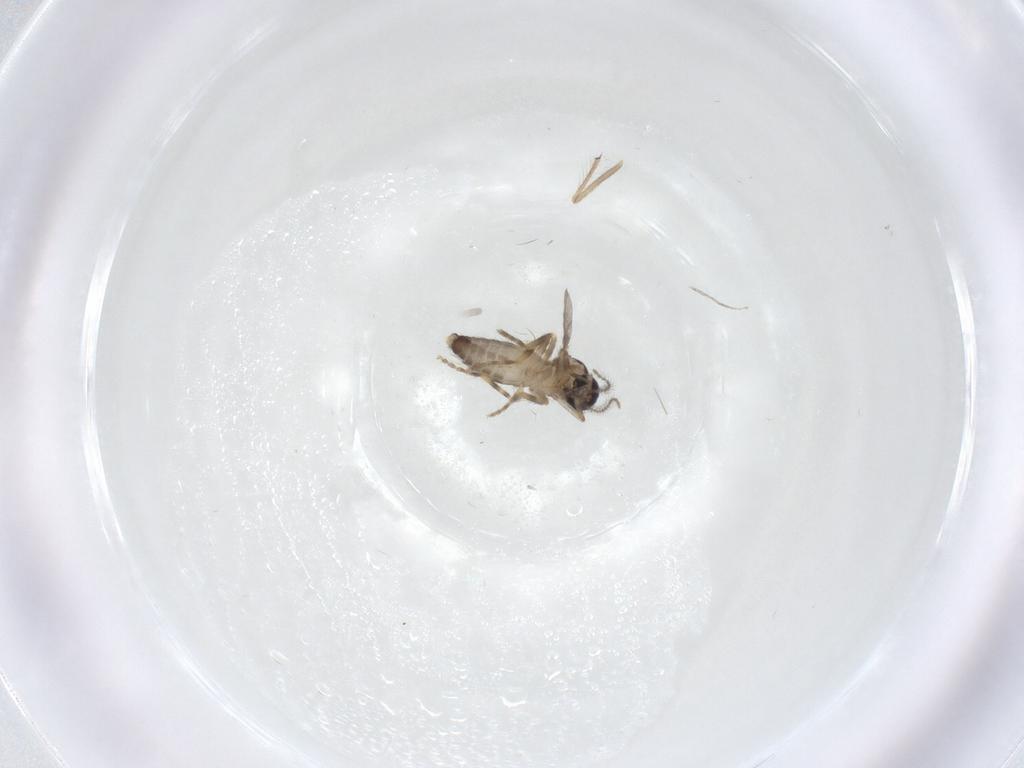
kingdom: Animalia
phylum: Arthropoda
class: Insecta
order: Diptera
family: Ceratopogonidae
